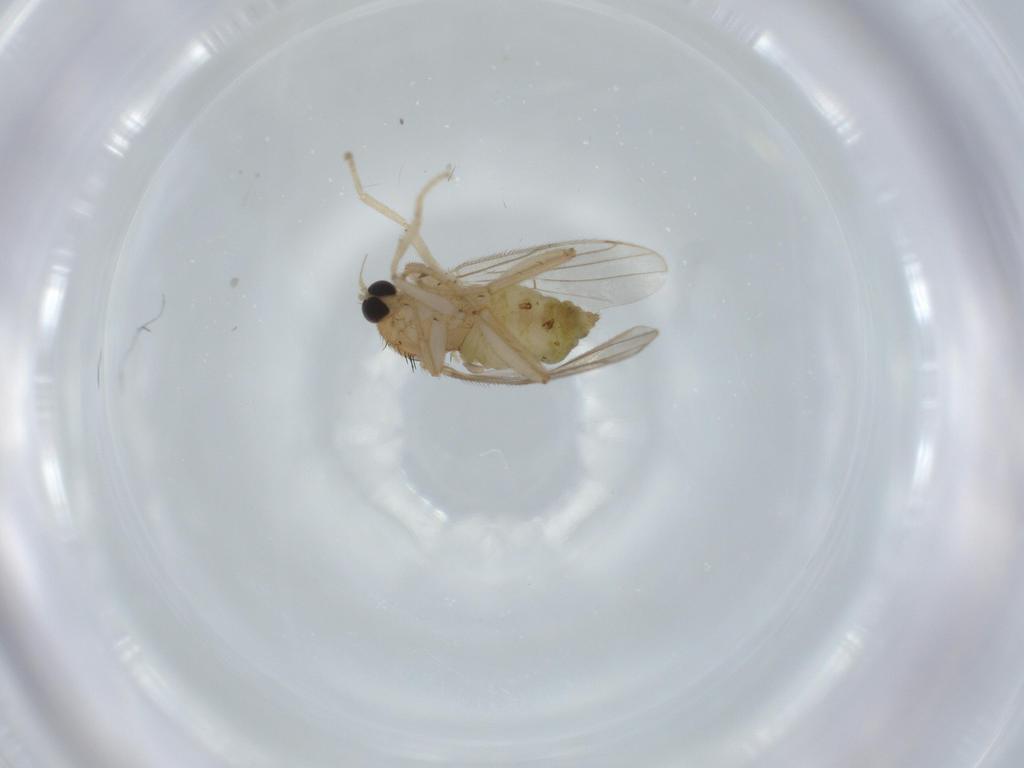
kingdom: Animalia
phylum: Arthropoda
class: Insecta
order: Diptera
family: Hybotidae
